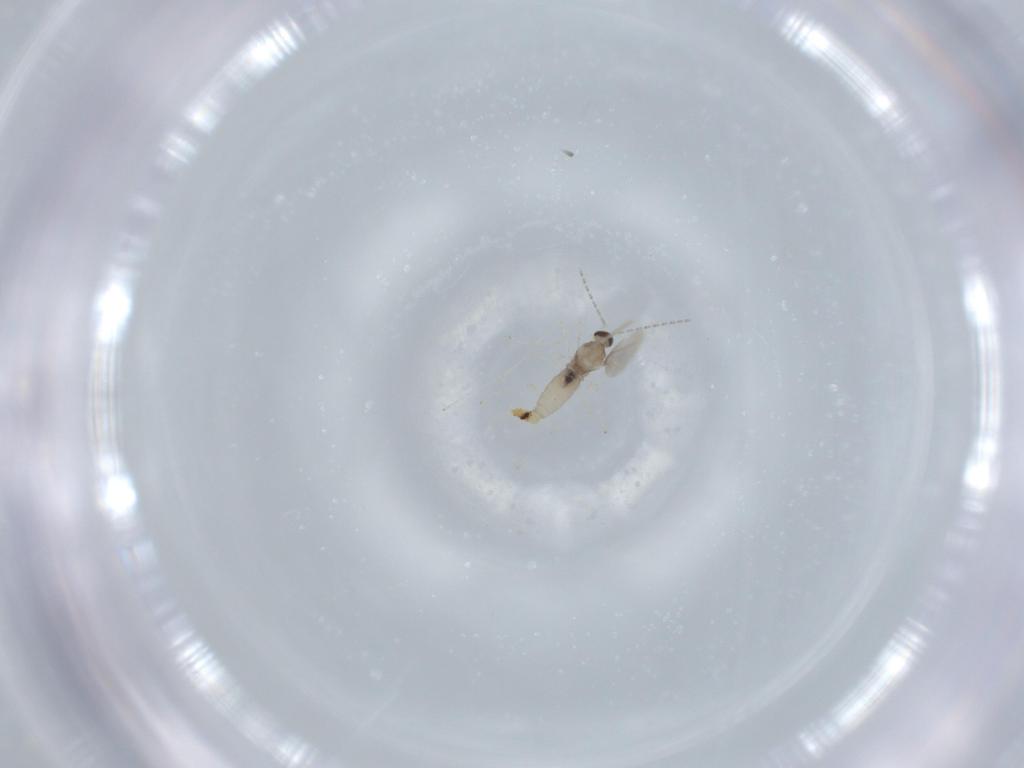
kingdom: Animalia
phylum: Arthropoda
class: Insecta
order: Diptera
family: Cecidomyiidae
